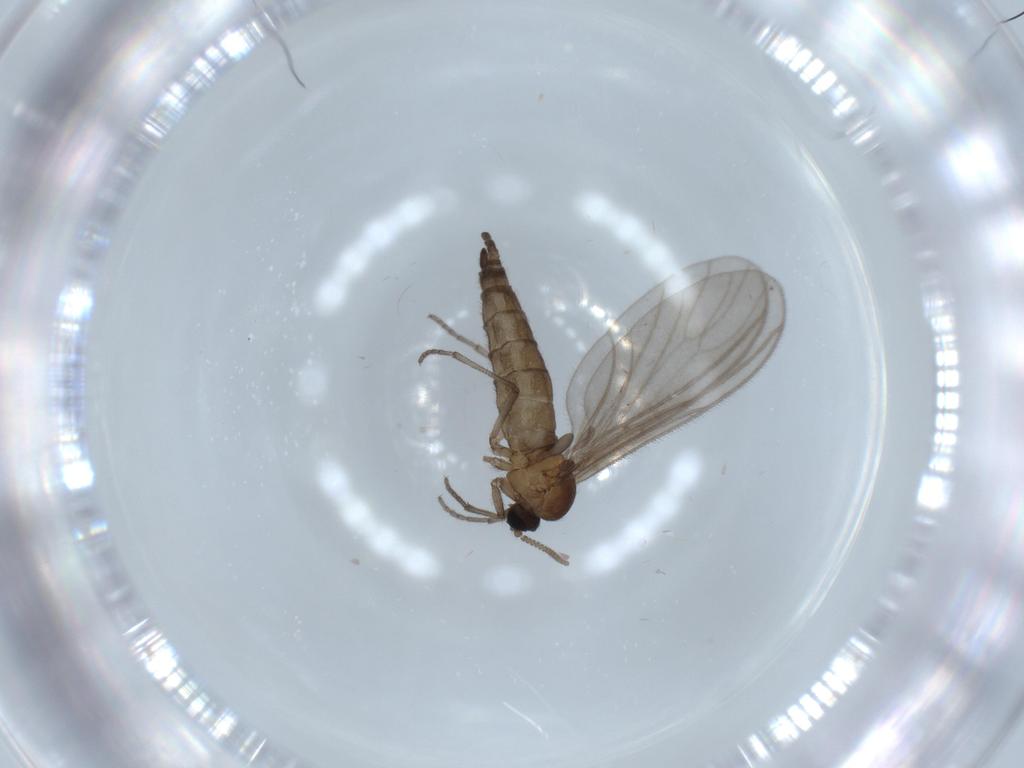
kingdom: Animalia
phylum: Arthropoda
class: Insecta
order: Diptera
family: Sciaridae
